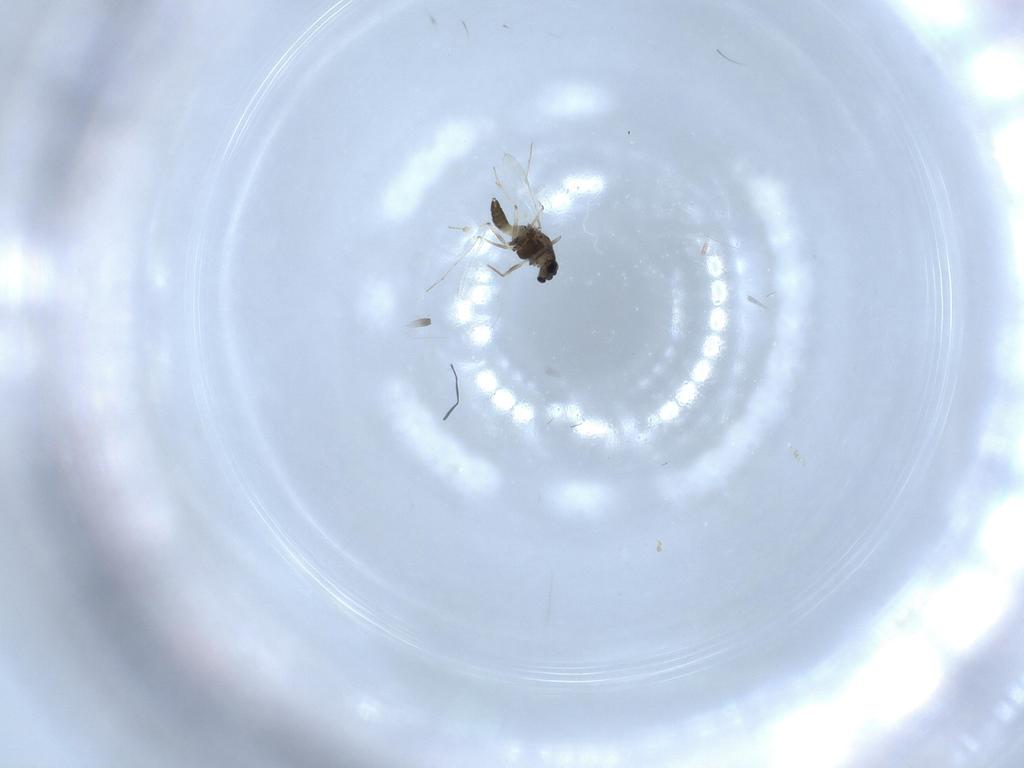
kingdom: Animalia
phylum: Arthropoda
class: Insecta
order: Diptera
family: Chironomidae
